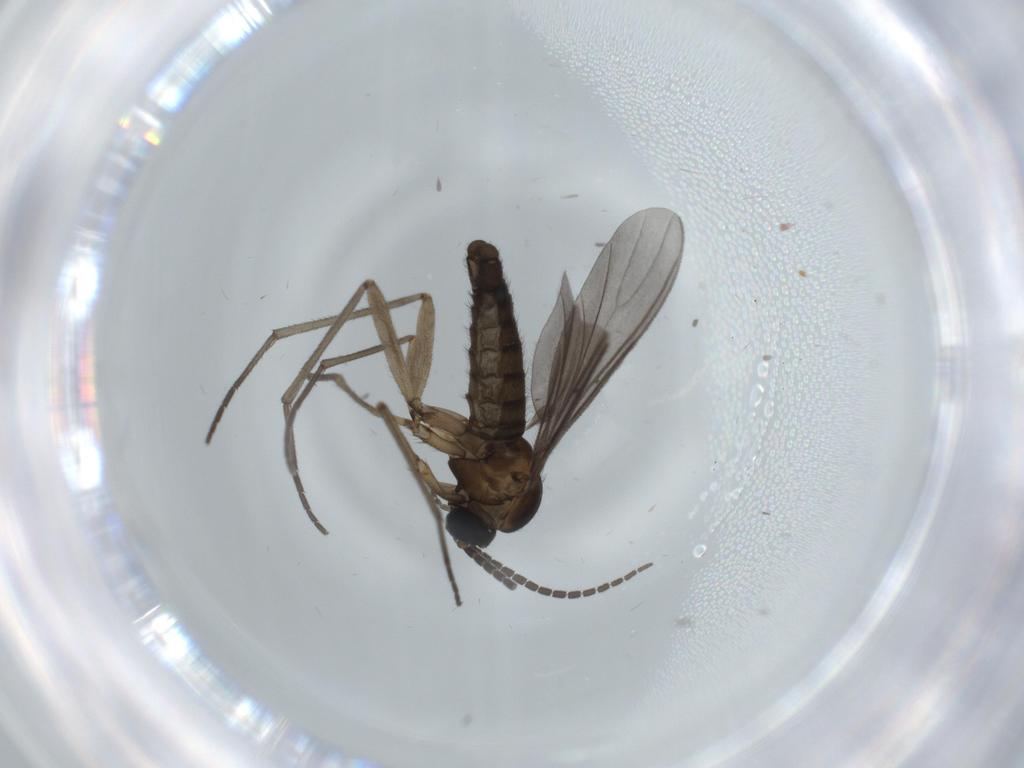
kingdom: Animalia
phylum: Arthropoda
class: Insecta
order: Diptera
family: Sciaridae
